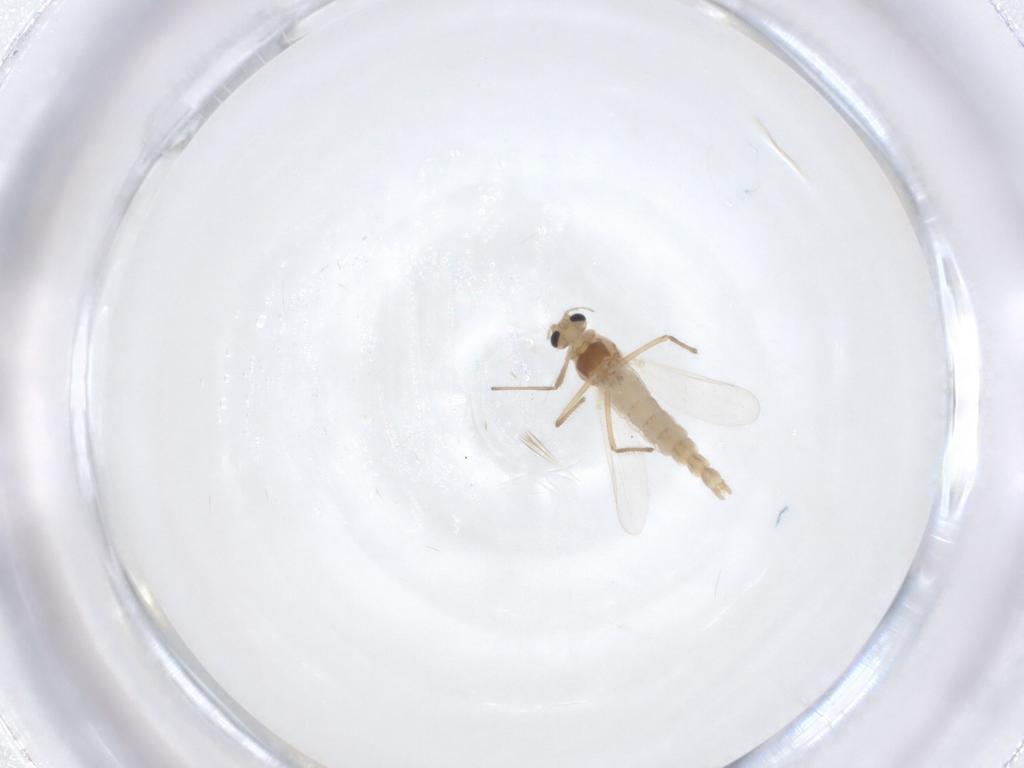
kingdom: Animalia
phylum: Arthropoda
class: Insecta
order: Diptera
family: Chironomidae
